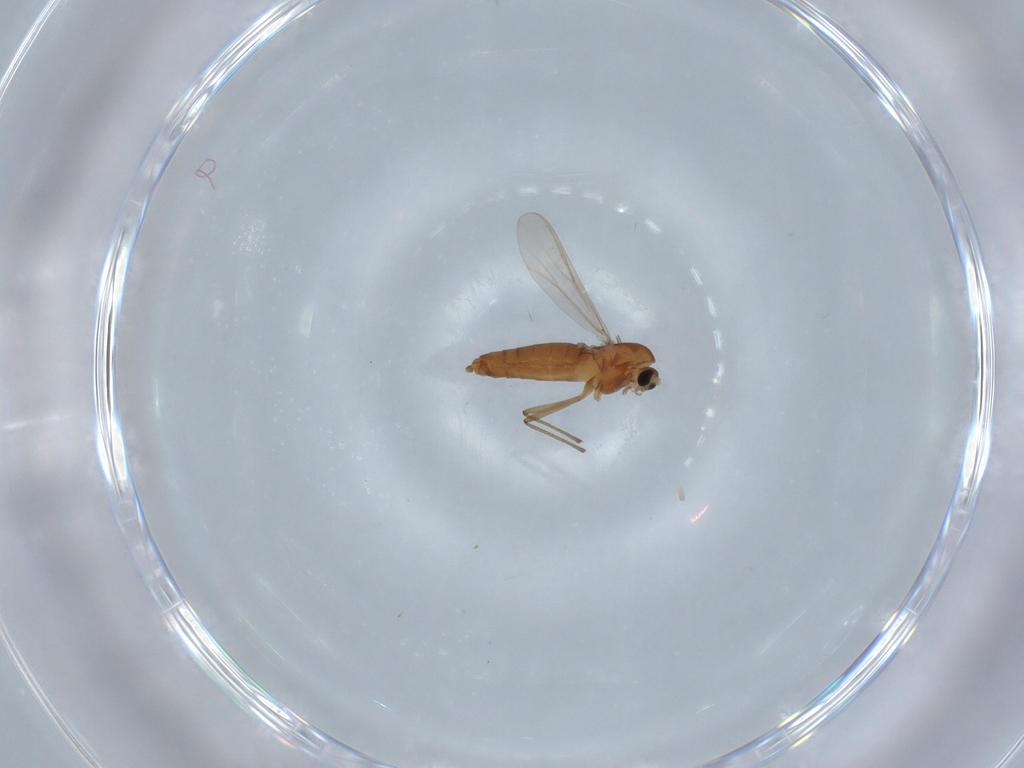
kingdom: Animalia
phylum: Arthropoda
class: Insecta
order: Diptera
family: Chironomidae
